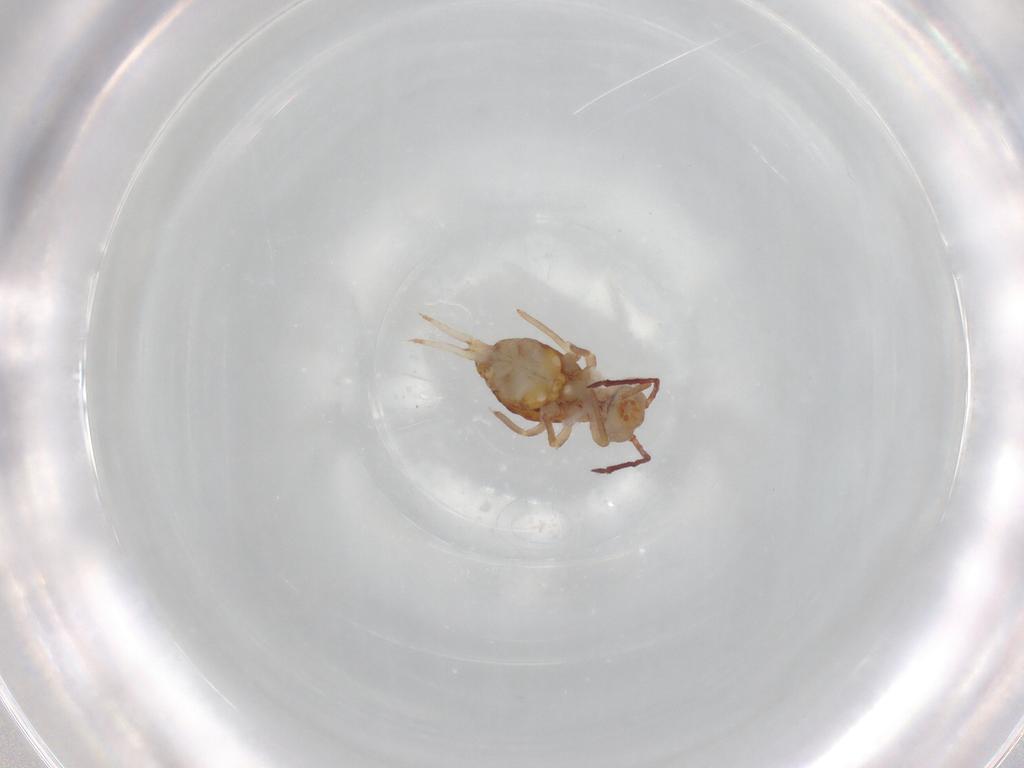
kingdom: Animalia
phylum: Arthropoda
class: Collembola
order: Symphypleona
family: Dicyrtomidae
